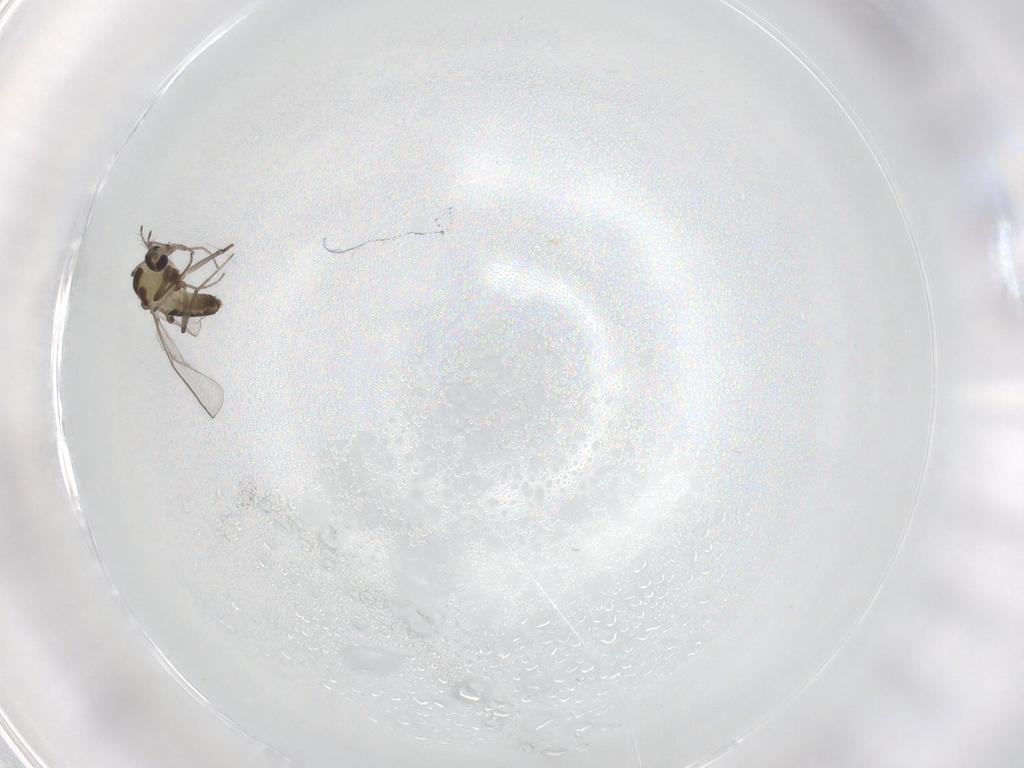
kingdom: Animalia
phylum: Arthropoda
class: Insecta
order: Diptera
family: Chironomidae
